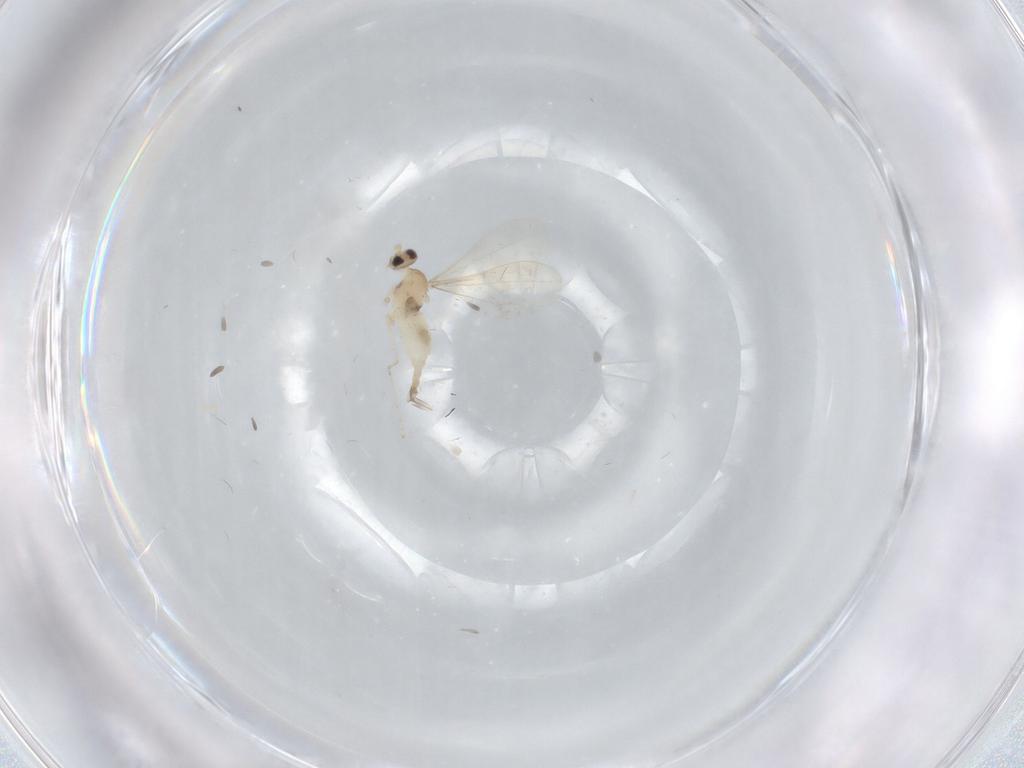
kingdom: Animalia
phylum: Arthropoda
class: Insecta
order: Diptera
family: Cecidomyiidae
